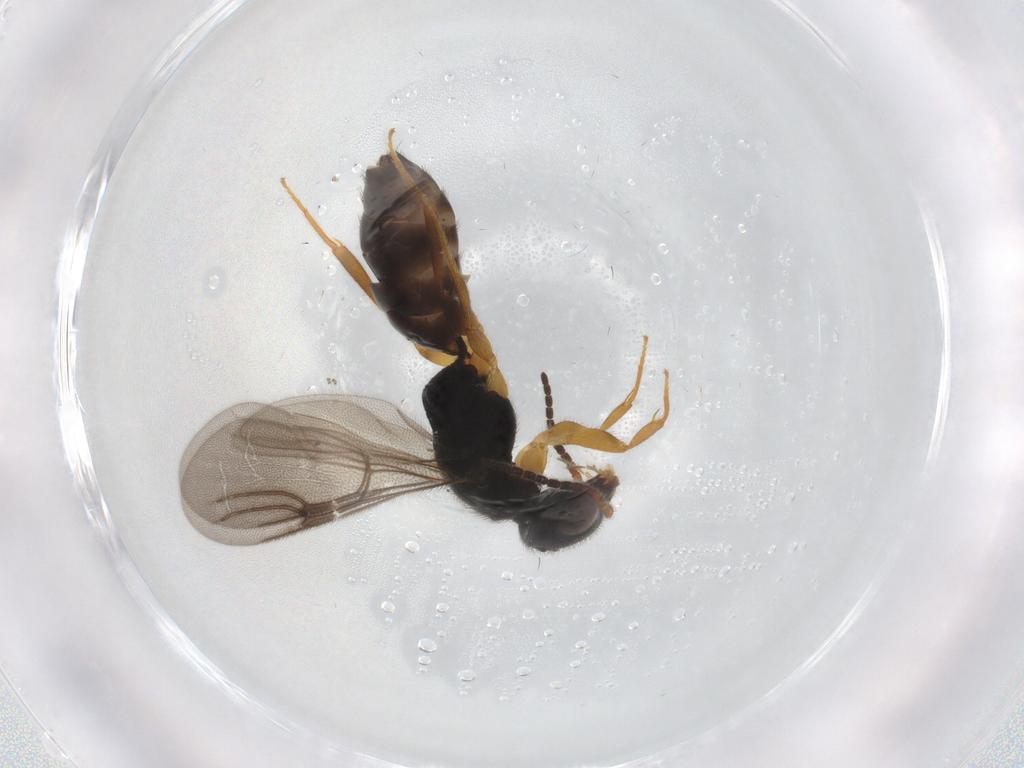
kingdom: Animalia
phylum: Arthropoda
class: Insecta
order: Hymenoptera
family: Bethylidae
